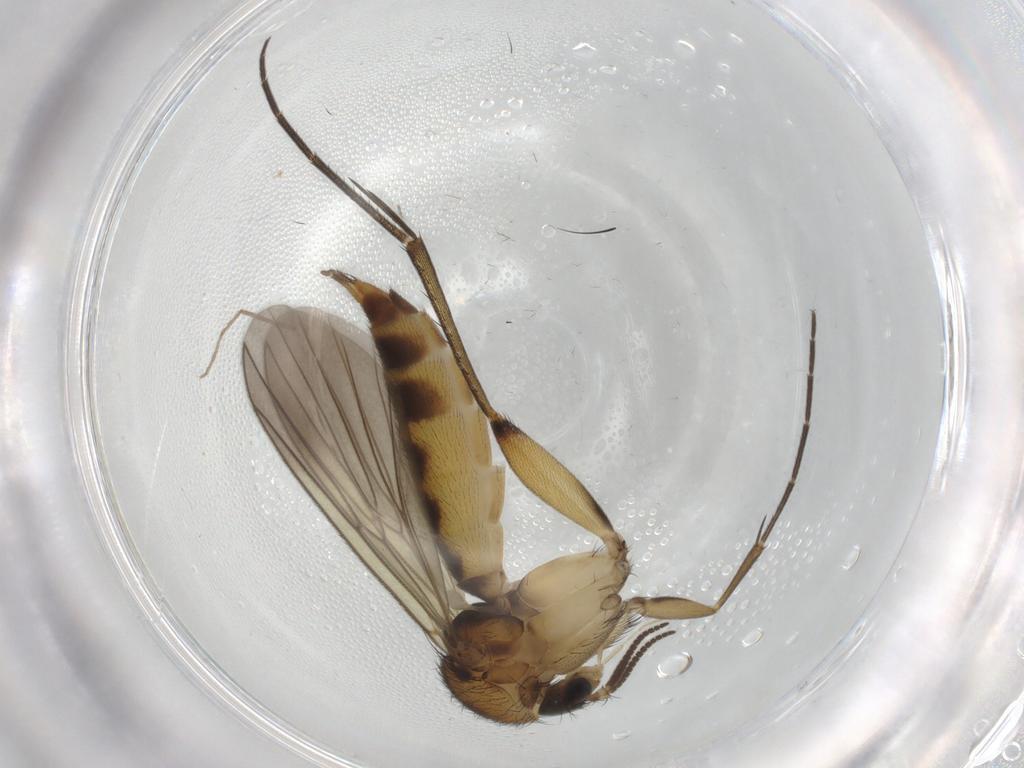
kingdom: Animalia
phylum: Arthropoda
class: Insecta
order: Diptera
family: Mycetophilidae
